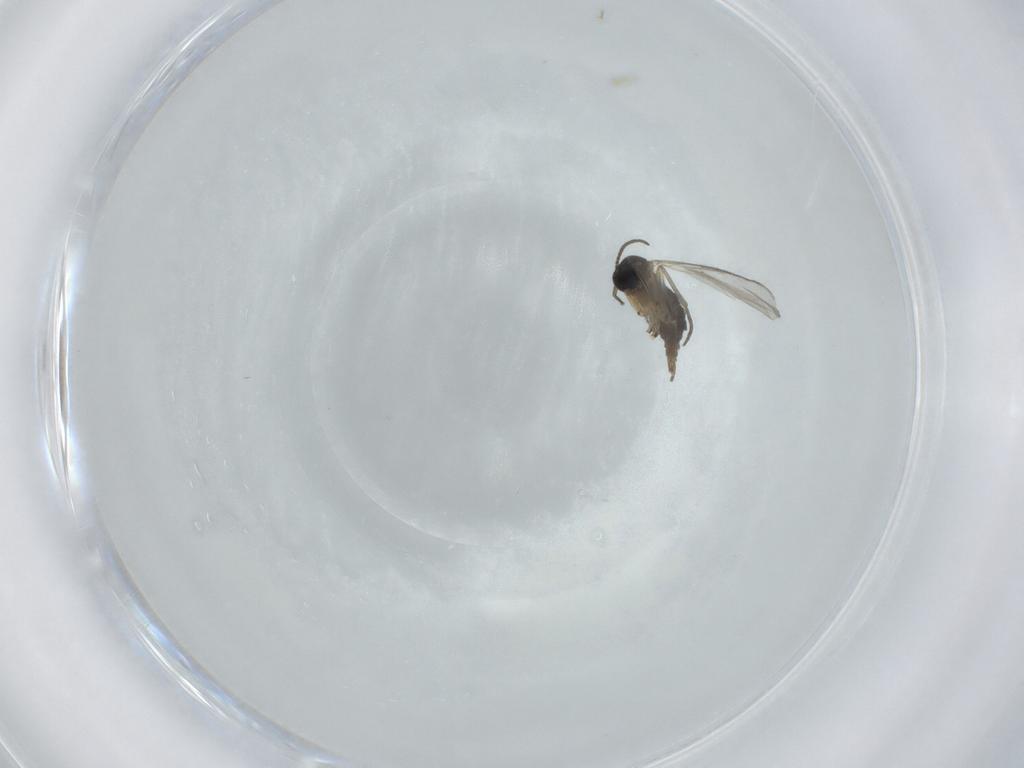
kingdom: Animalia
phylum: Arthropoda
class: Insecta
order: Diptera
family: Sciaridae
